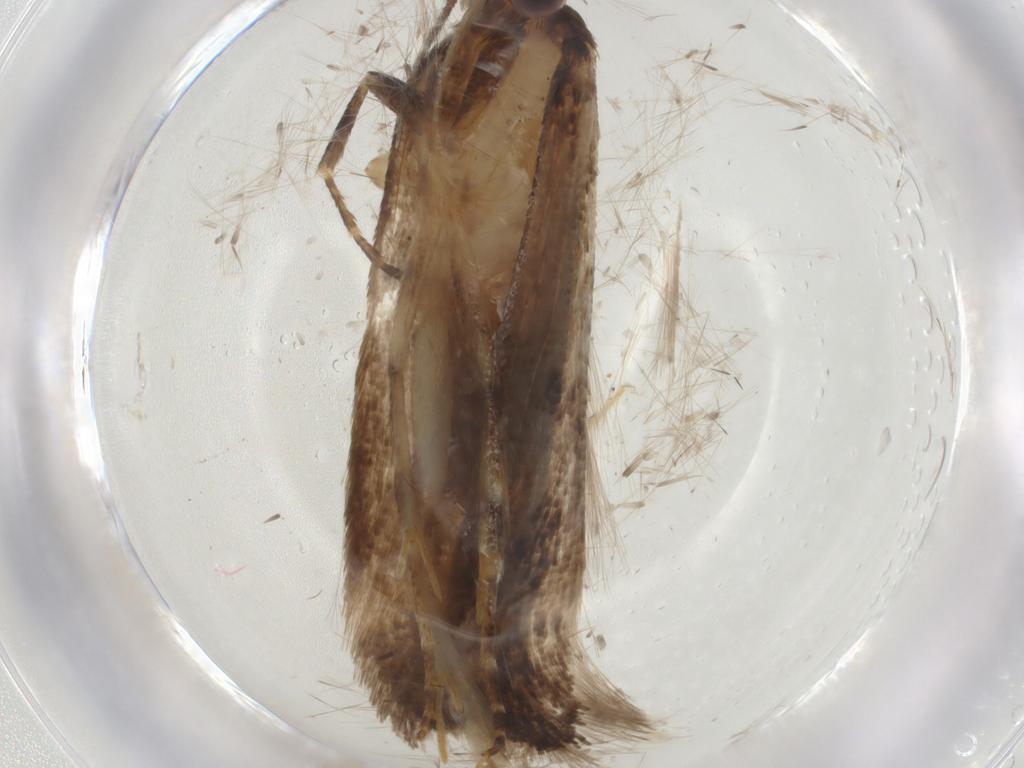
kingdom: Animalia
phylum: Arthropoda
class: Insecta
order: Lepidoptera
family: Gelechiidae
